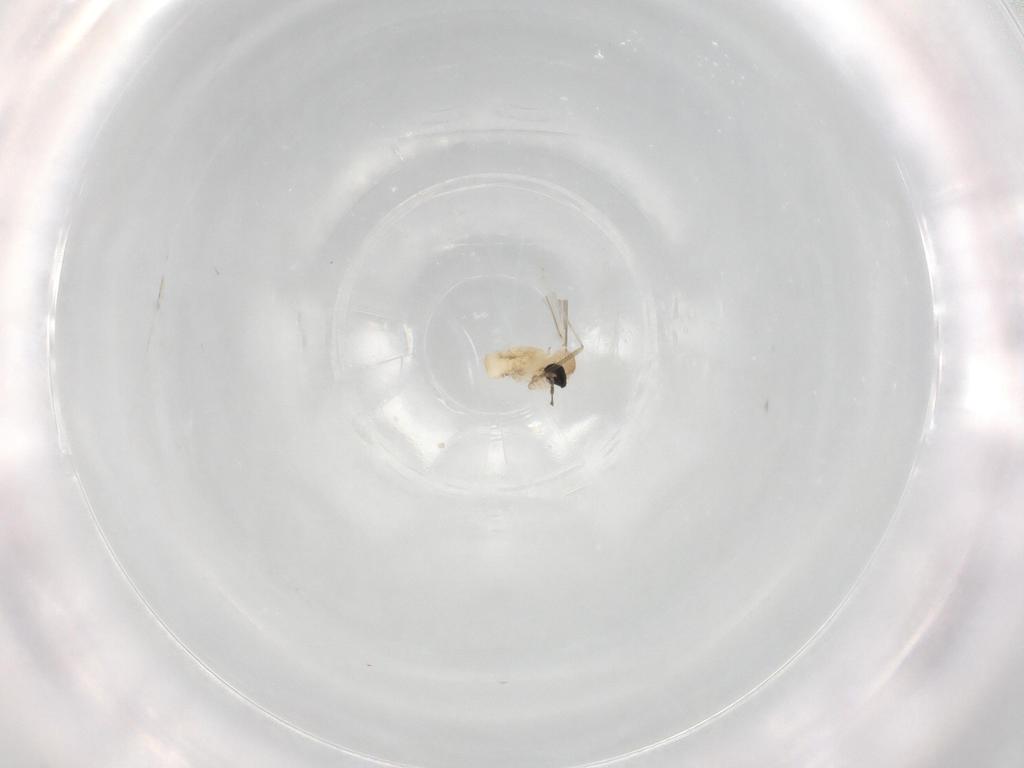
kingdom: Animalia
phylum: Arthropoda
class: Insecta
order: Diptera
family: Cecidomyiidae
